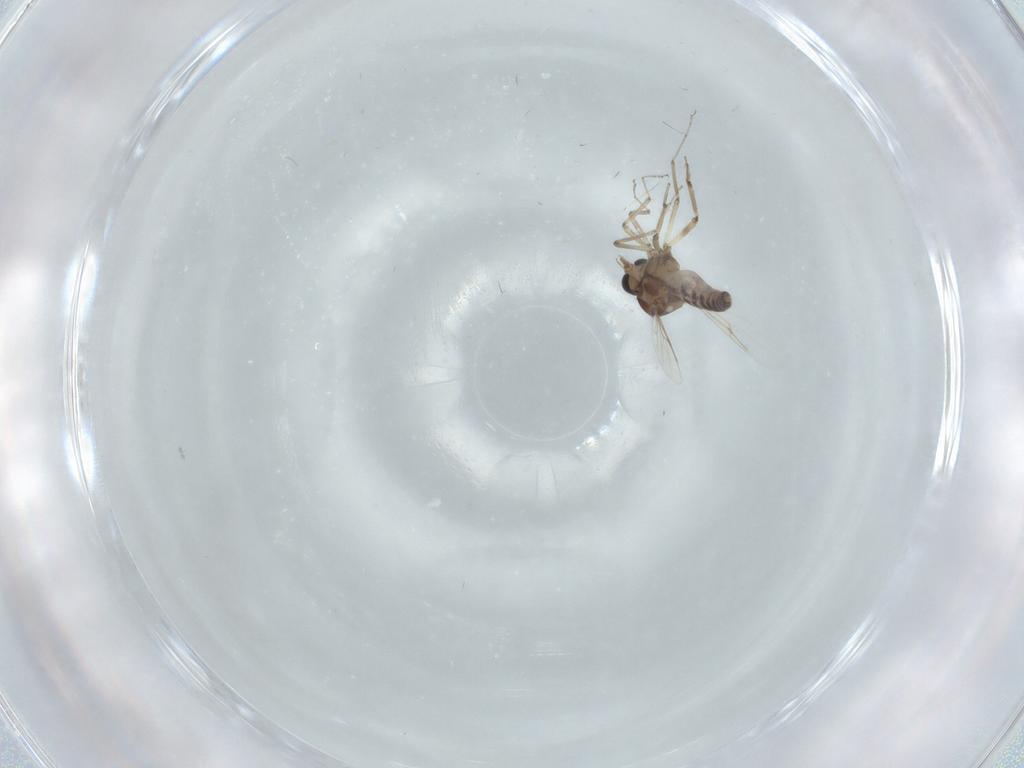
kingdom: Animalia
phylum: Arthropoda
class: Insecta
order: Diptera
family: Ceratopogonidae
